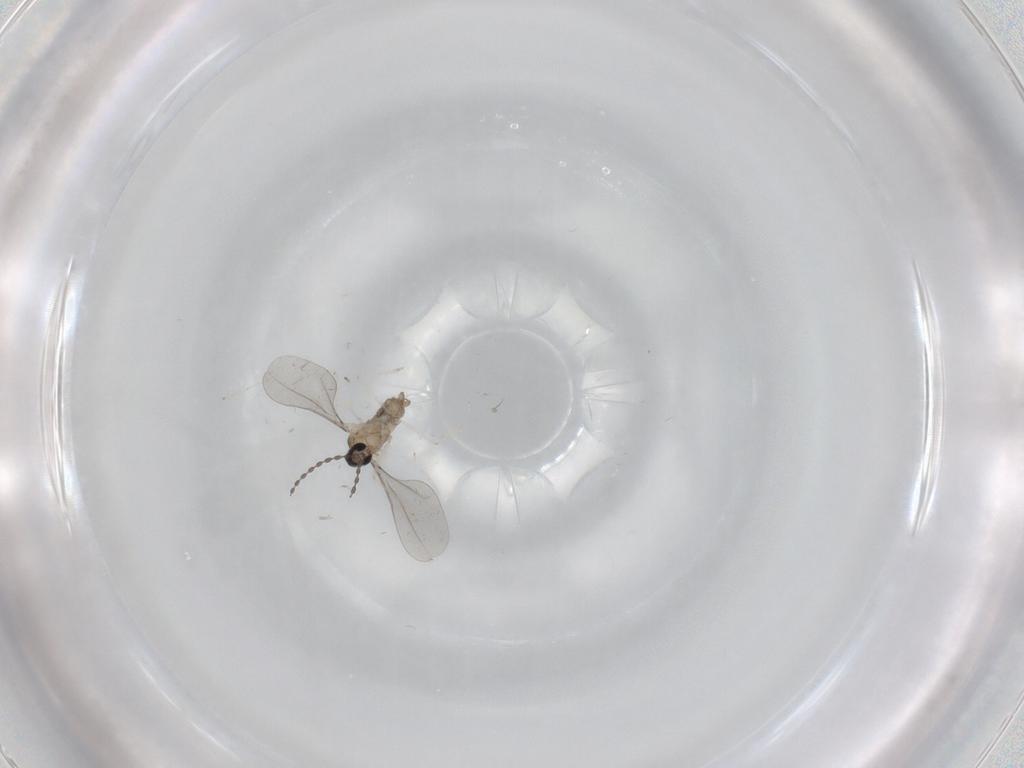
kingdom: Animalia
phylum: Arthropoda
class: Insecta
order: Diptera
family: Cecidomyiidae
